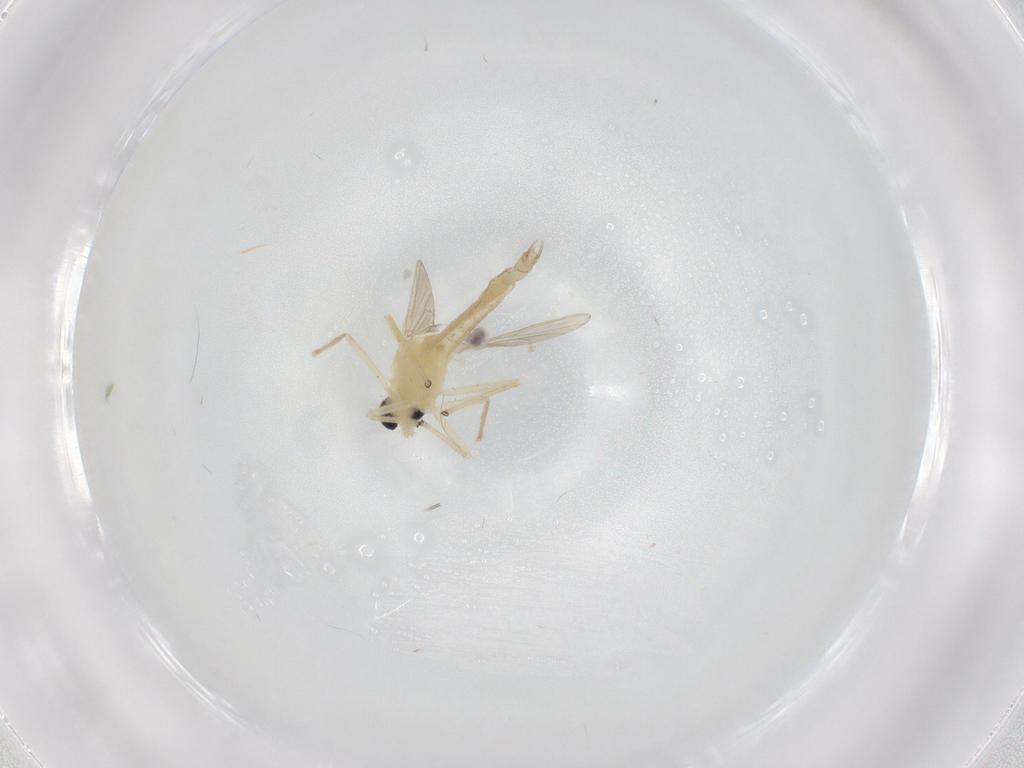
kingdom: Animalia
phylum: Arthropoda
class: Insecta
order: Diptera
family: Chironomidae
